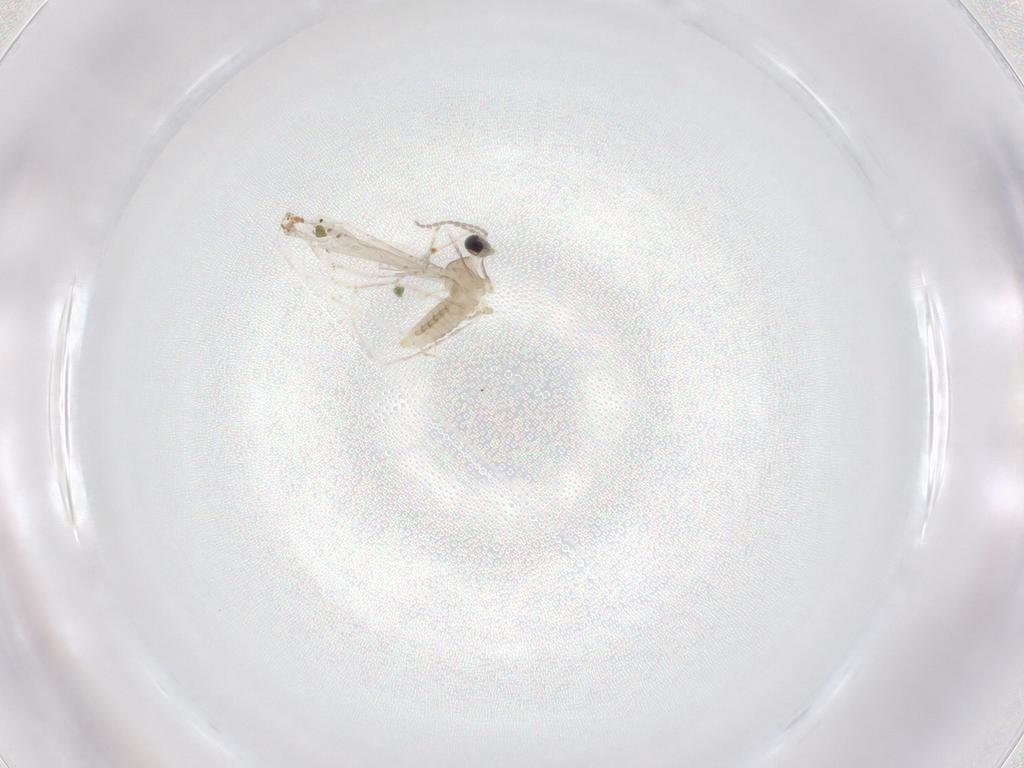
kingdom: Animalia
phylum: Arthropoda
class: Insecta
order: Diptera
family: Cecidomyiidae
